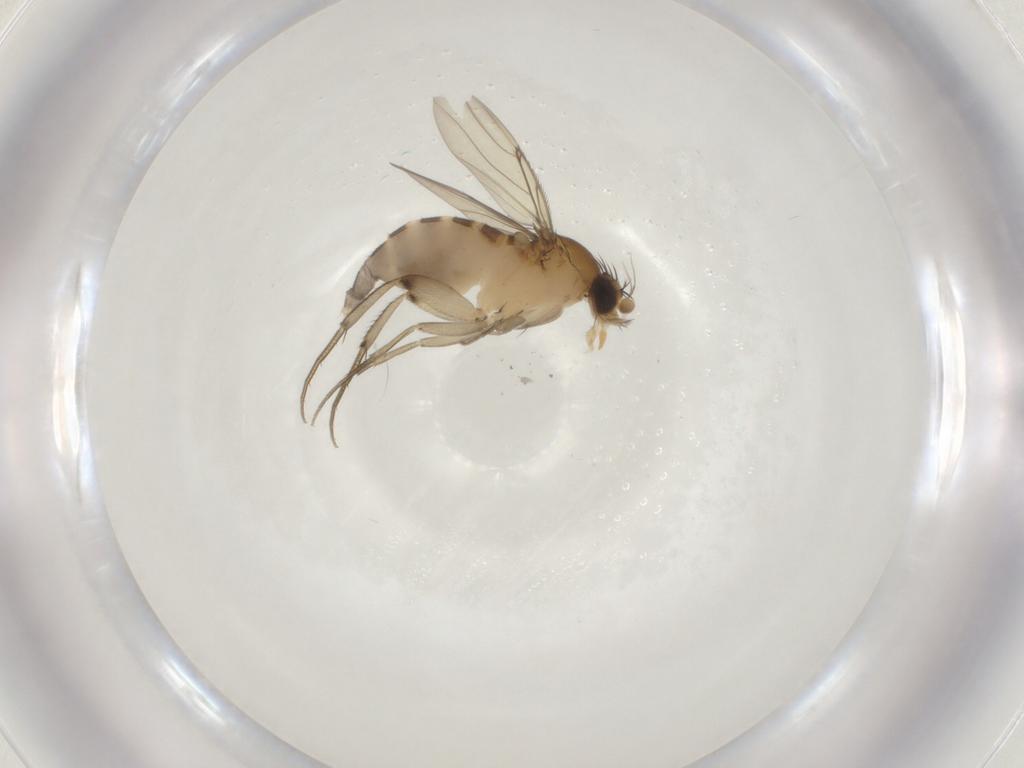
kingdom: Animalia
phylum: Arthropoda
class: Insecta
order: Diptera
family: Phoridae
